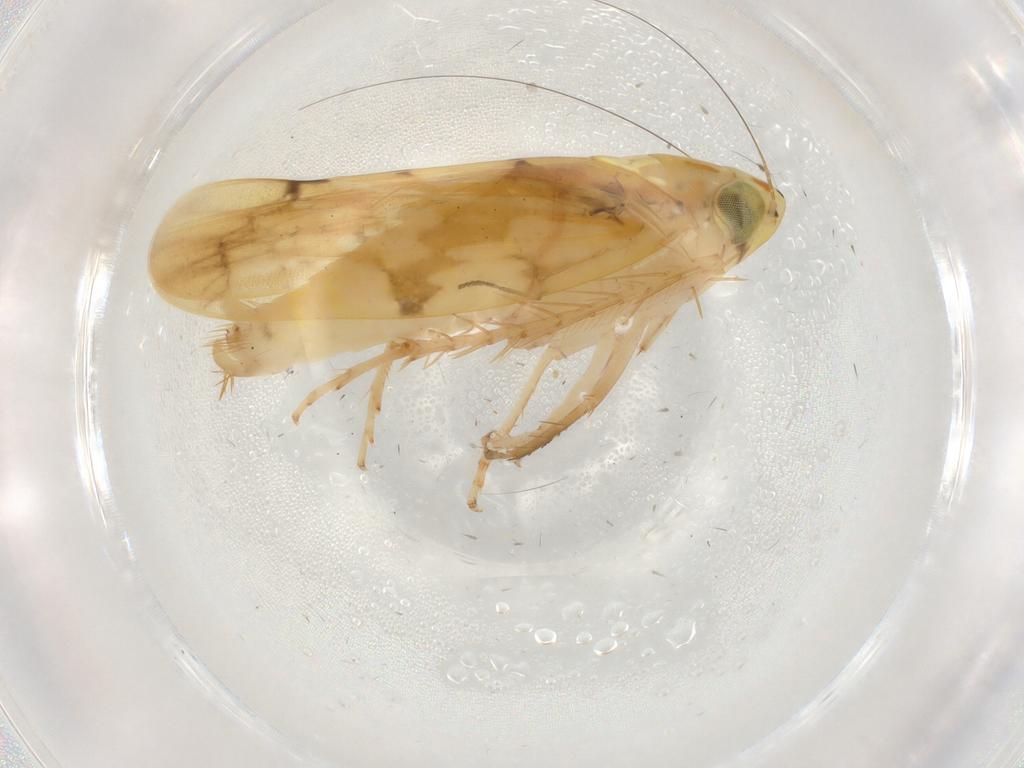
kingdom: Animalia
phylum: Arthropoda
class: Insecta
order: Hemiptera
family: Cicadellidae
